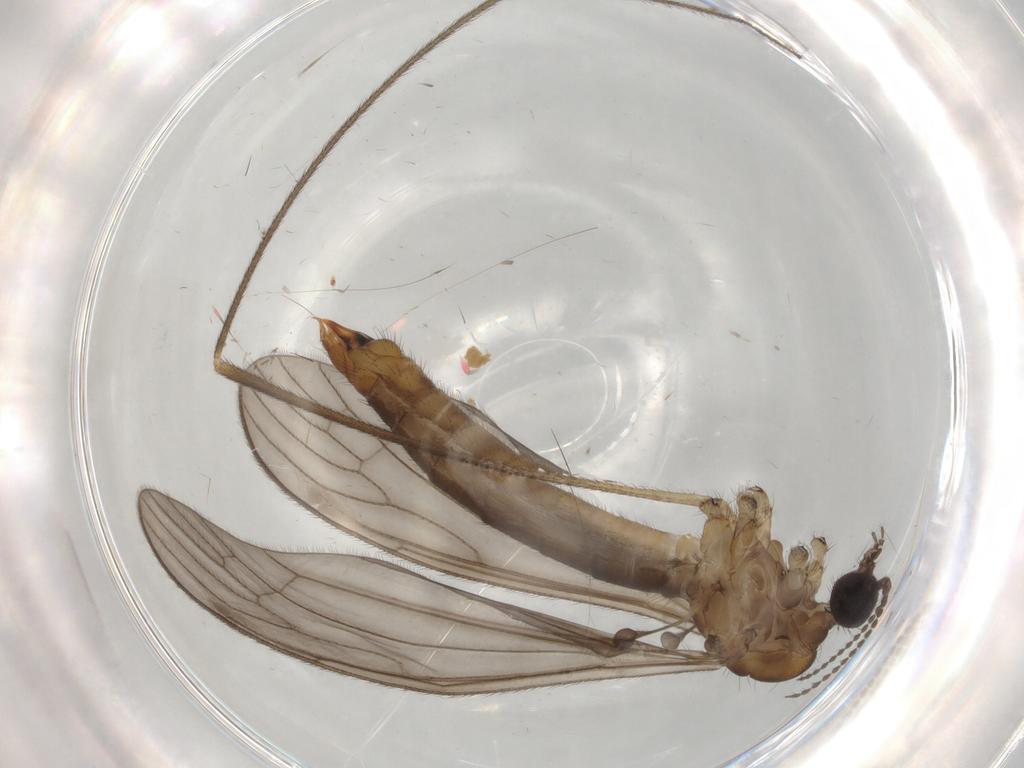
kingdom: Animalia
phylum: Arthropoda
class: Insecta
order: Diptera
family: Limoniidae
